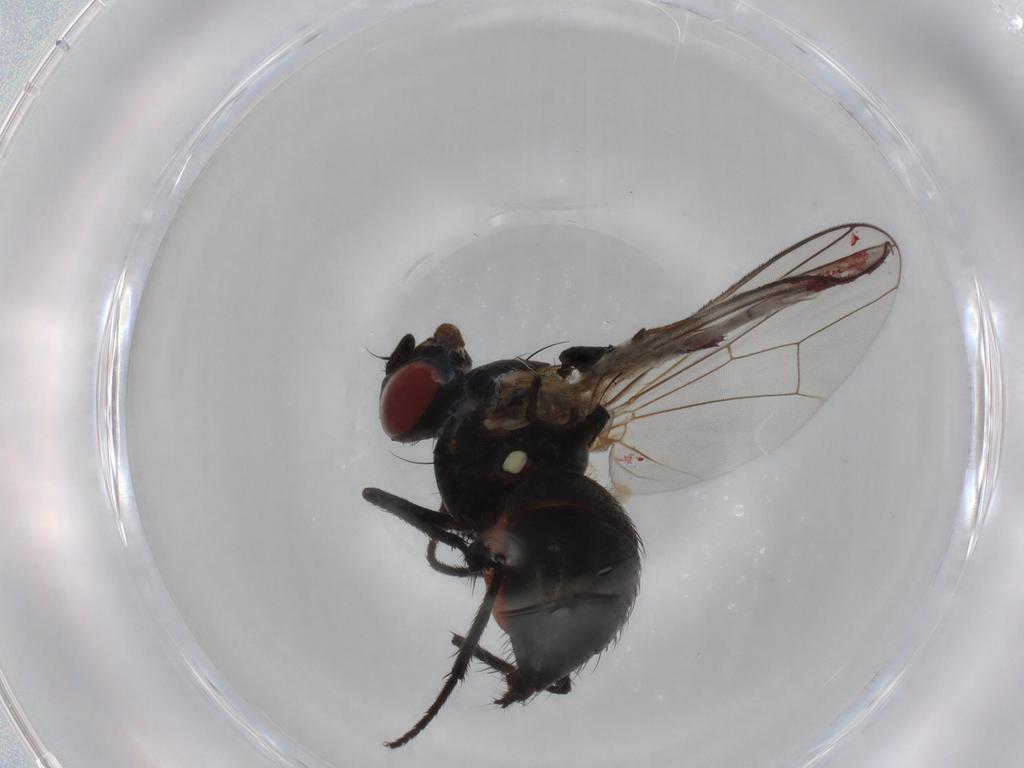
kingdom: Animalia
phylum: Arthropoda
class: Insecta
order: Diptera
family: Anthomyiidae
